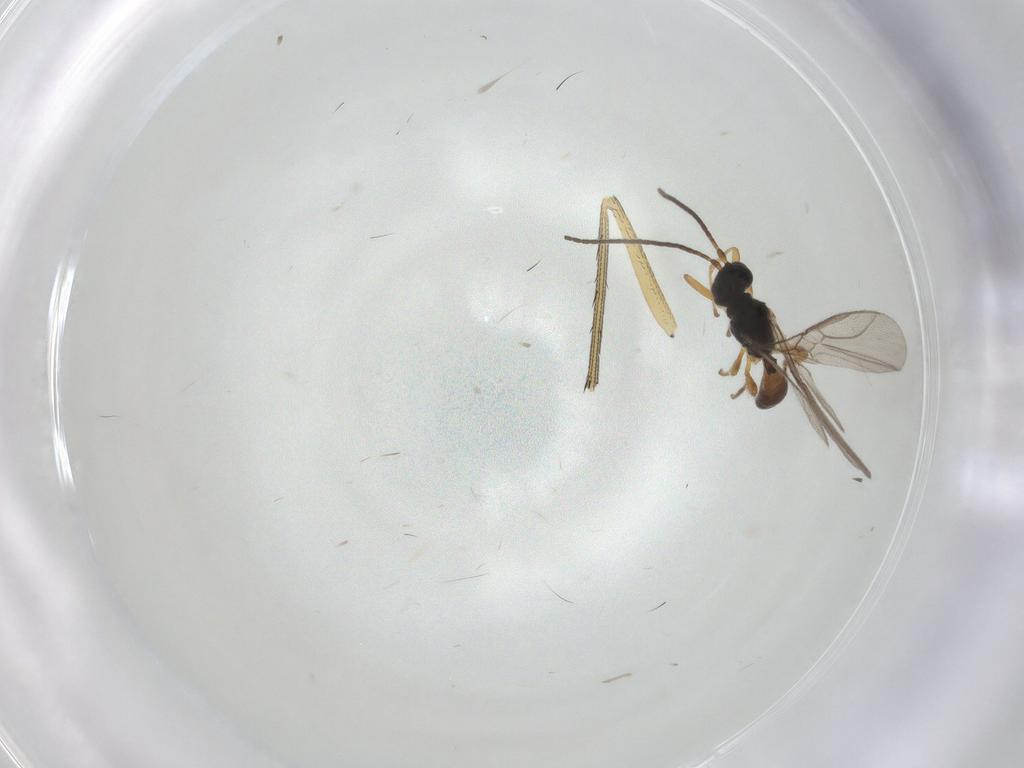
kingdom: Animalia
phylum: Arthropoda
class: Insecta
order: Hymenoptera
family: Braconidae
